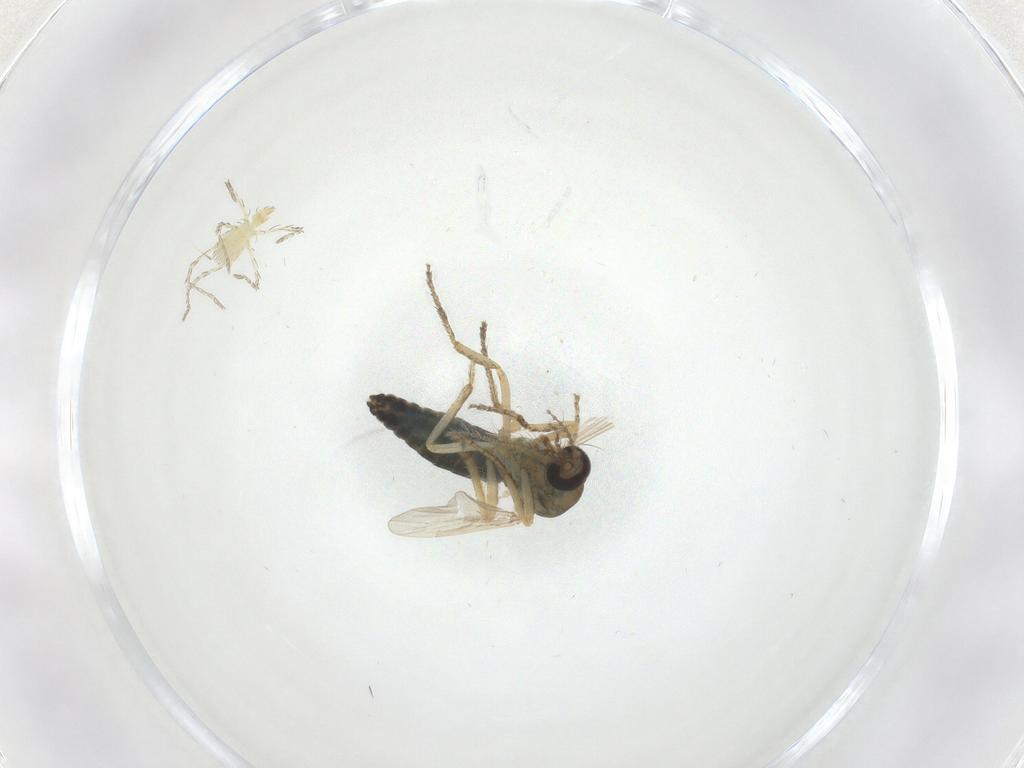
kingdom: Animalia
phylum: Arthropoda
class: Insecta
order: Diptera
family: Ceratopogonidae
